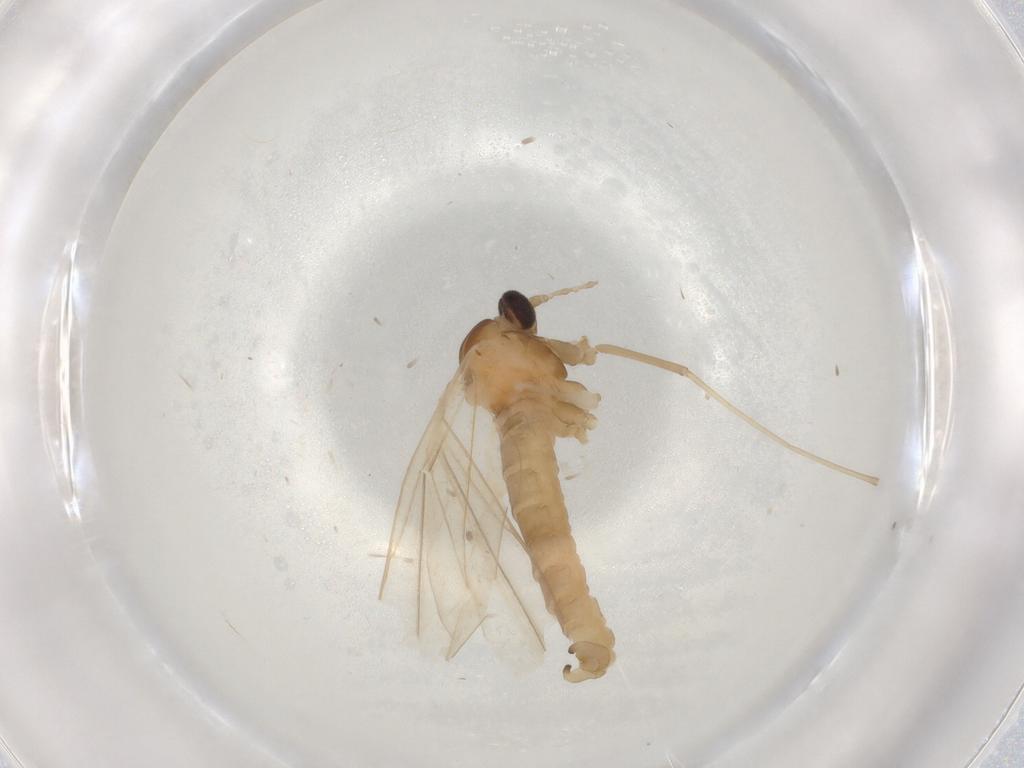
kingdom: Animalia
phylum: Arthropoda
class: Insecta
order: Diptera
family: Cecidomyiidae
